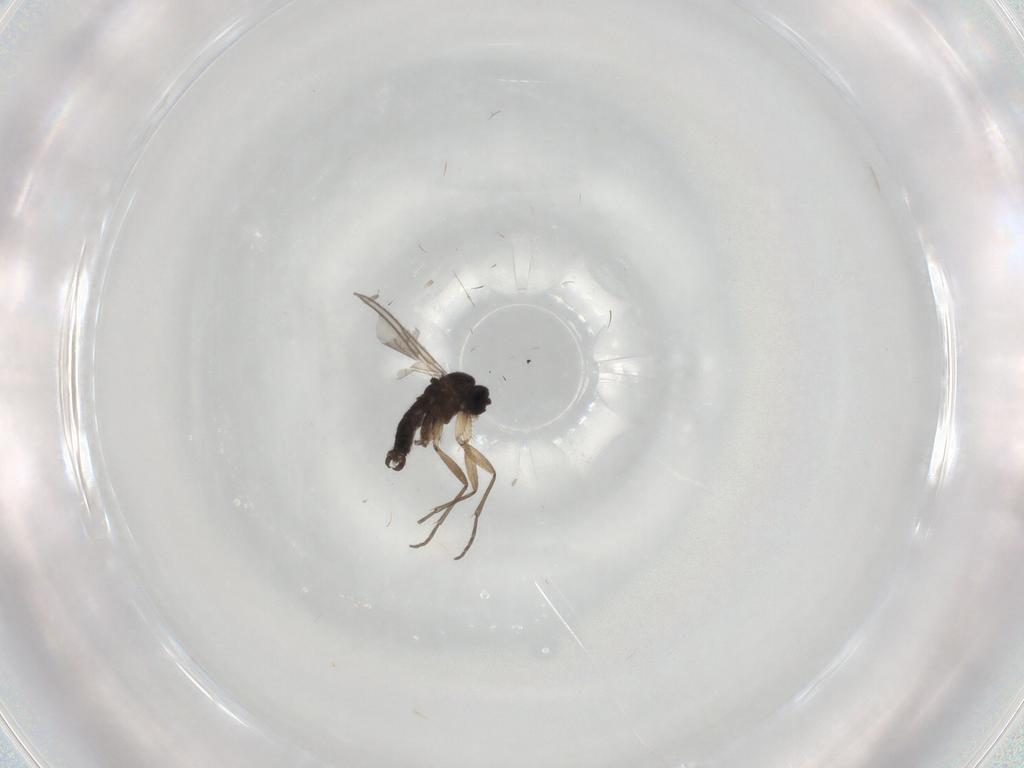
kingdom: Animalia
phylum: Arthropoda
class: Insecta
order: Diptera
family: Sciaridae
